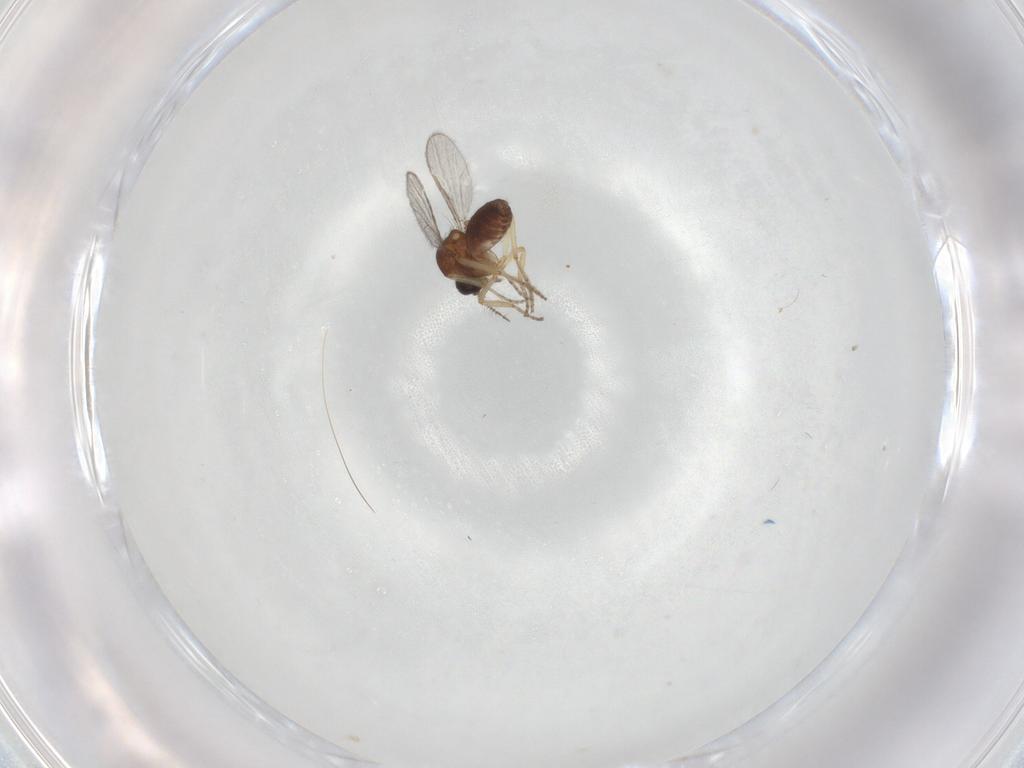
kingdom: Animalia
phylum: Arthropoda
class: Insecta
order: Diptera
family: Ceratopogonidae
